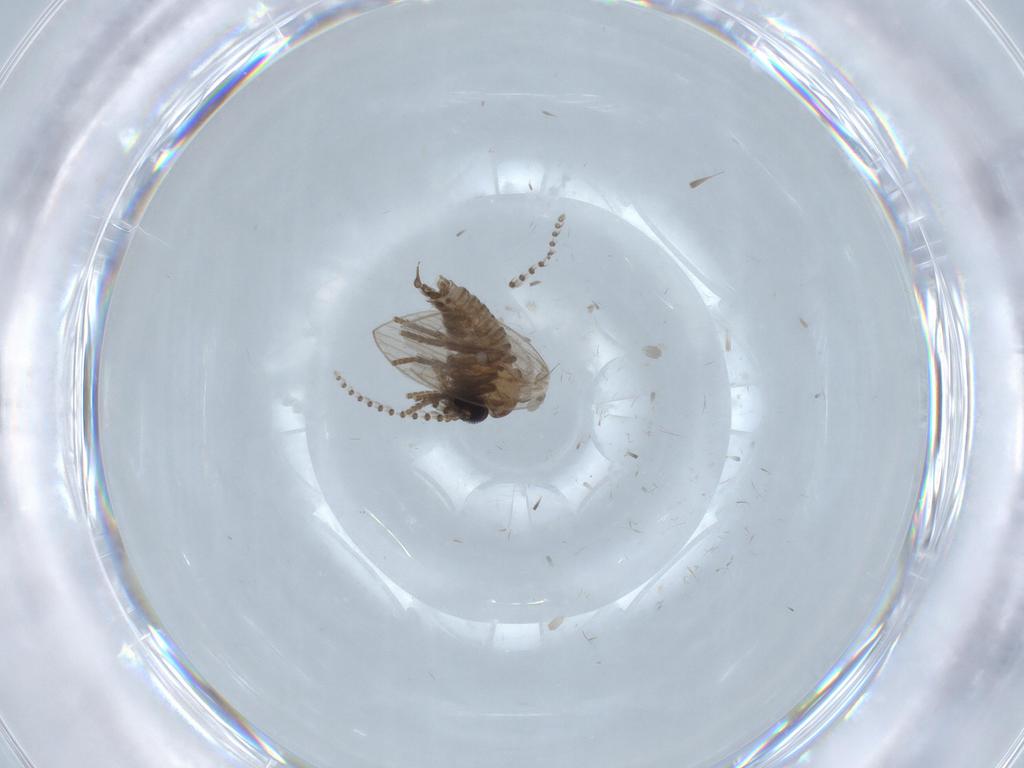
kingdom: Animalia
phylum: Arthropoda
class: Insecta
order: Diptera
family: Psychodidae
